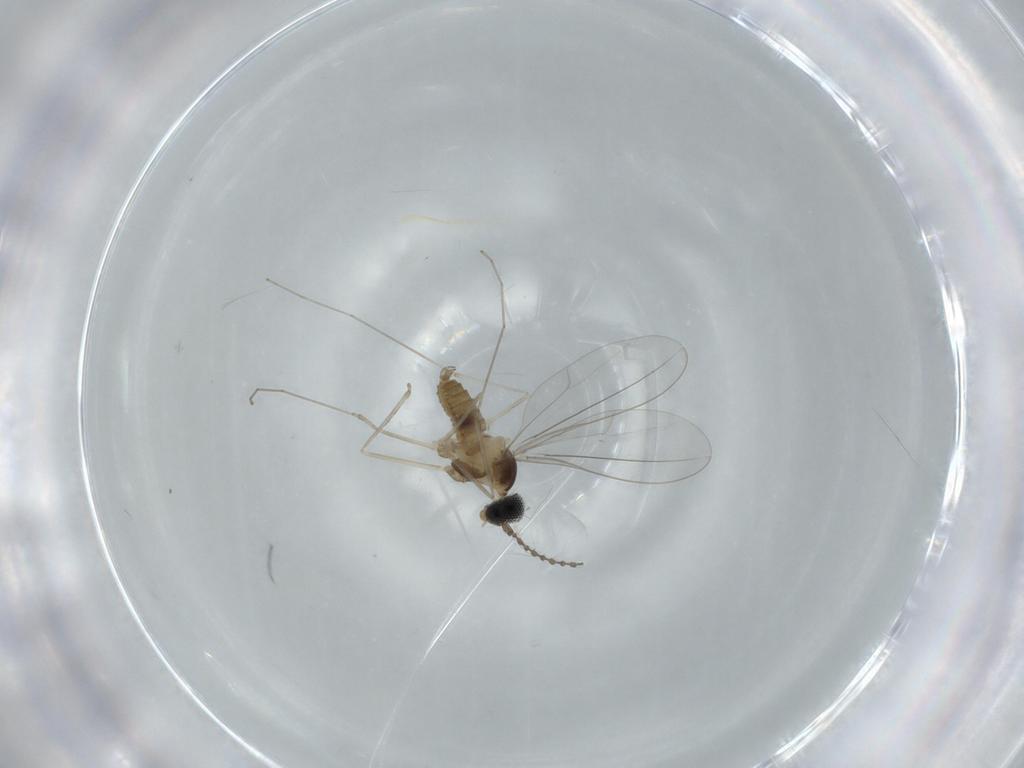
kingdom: Animalia
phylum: Arthropoda
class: Insecta
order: Diptera
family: Cecidomyiidae
